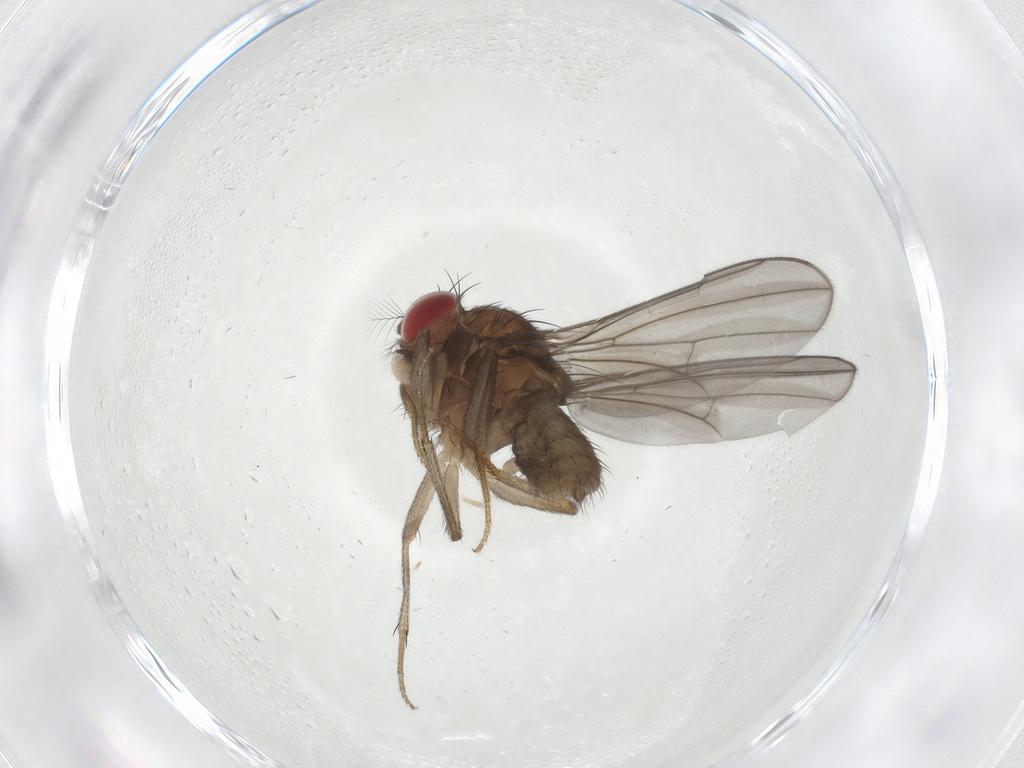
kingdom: Animalia
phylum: Arthropoda
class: Insecta
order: Diptera
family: Drosophilidae
